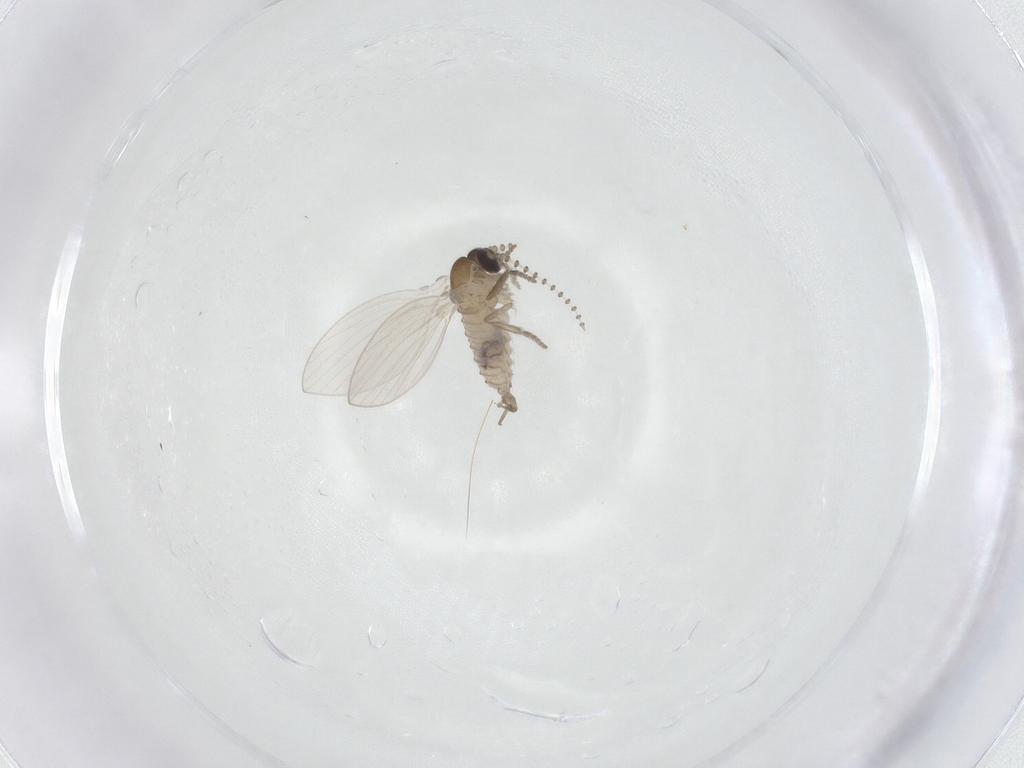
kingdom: Animalia
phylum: Arthropoda
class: Insecta
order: Diptera
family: Psychodidae
